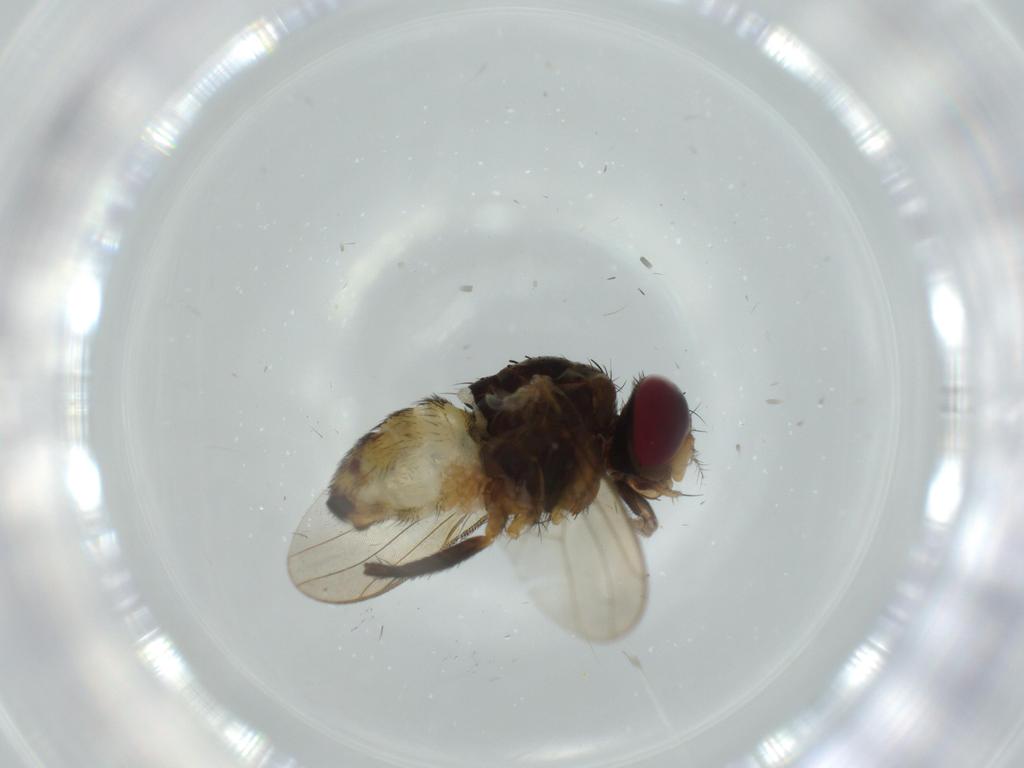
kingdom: Animalia
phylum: Arthropoda
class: Insecta
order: Diptera
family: Anthomyiidae
